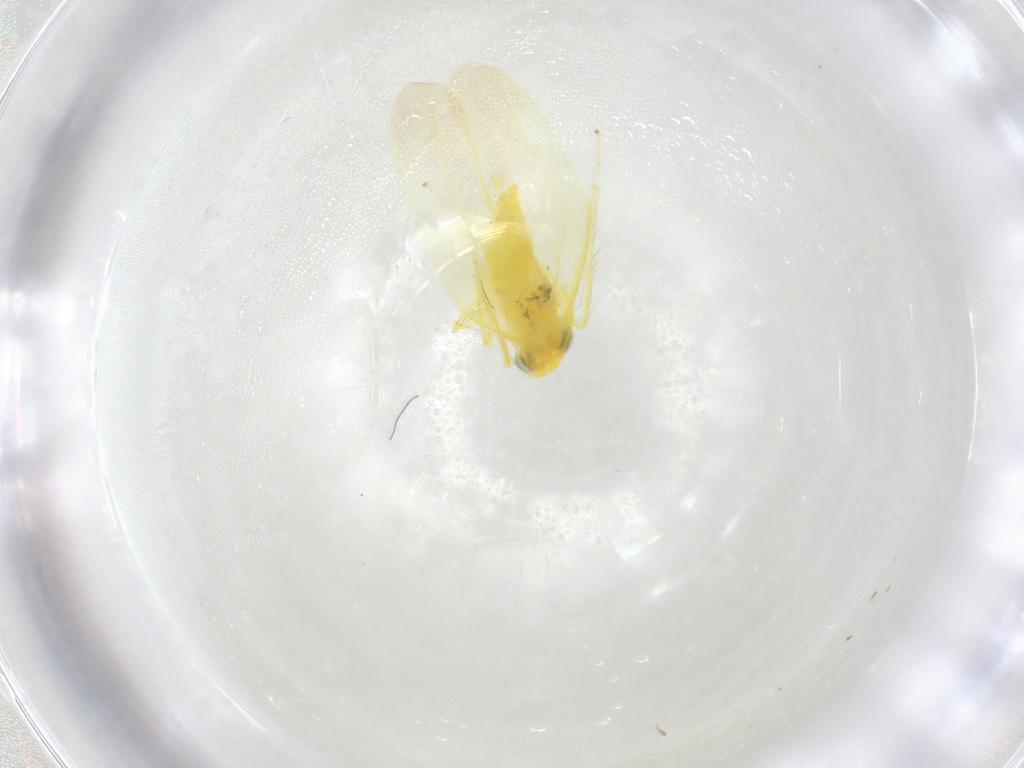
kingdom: Animalia
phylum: Arthropoda
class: Insecta
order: Hemiptera
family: Cicadellidae
